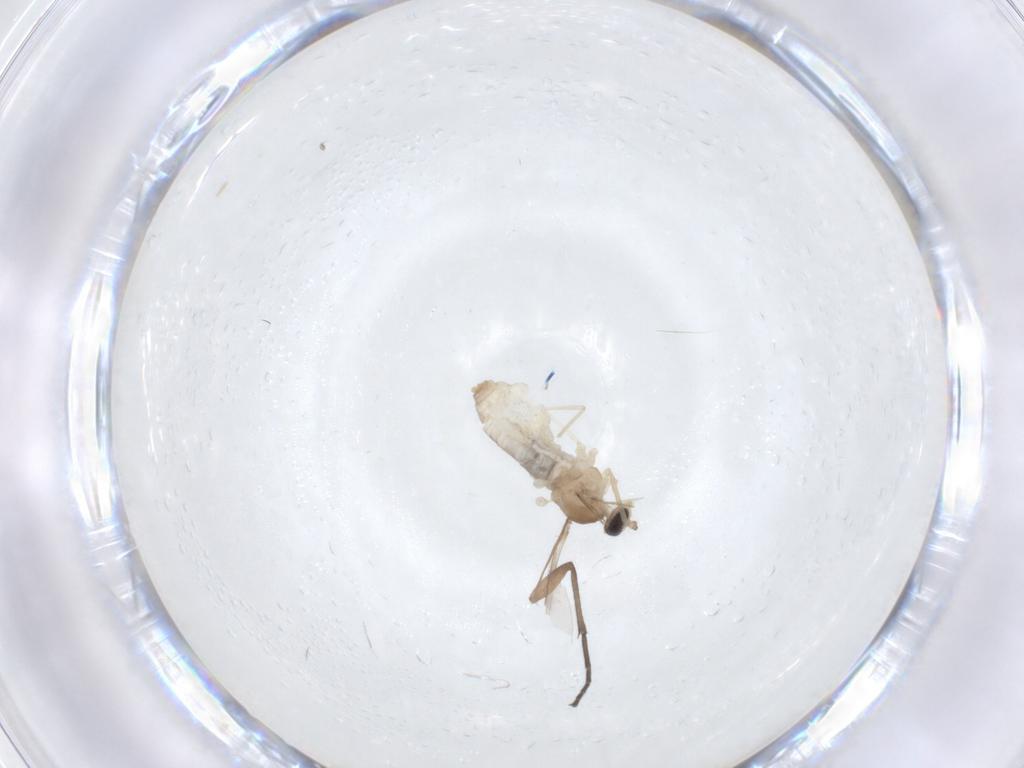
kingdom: Animalia
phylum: Arthropoda
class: Insecta
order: Diptera
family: Cecidomyiidae
